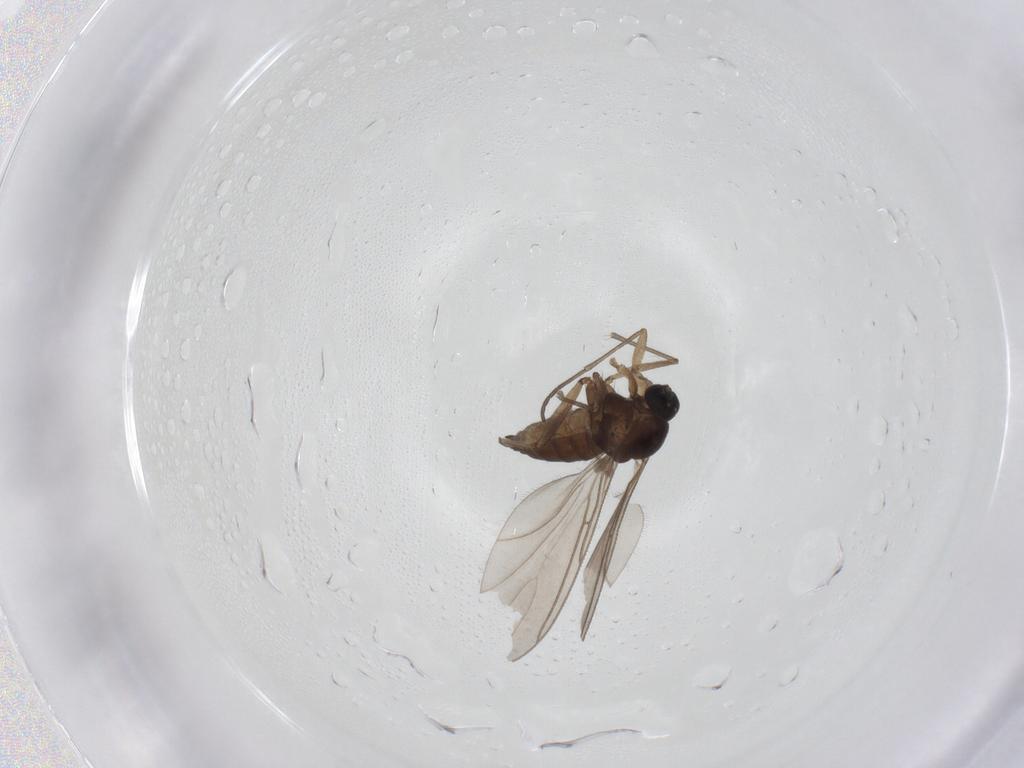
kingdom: Animalia
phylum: Arthropoda
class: Insecta
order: Diptera
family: Sciaridae
